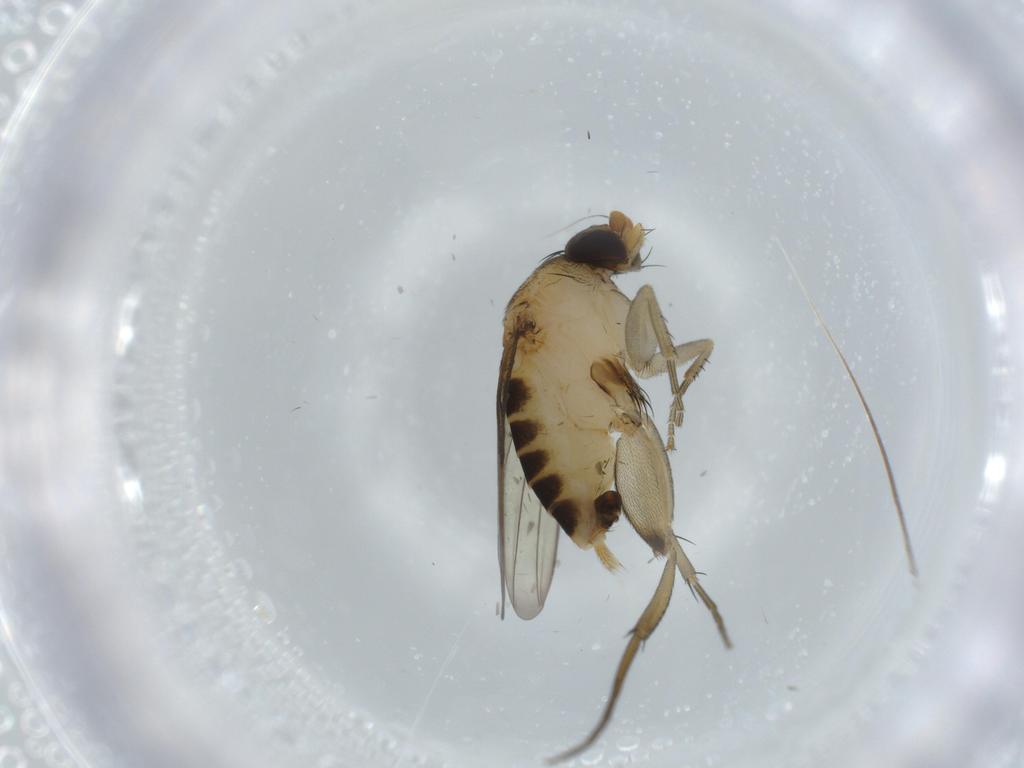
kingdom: Animalia
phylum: Arthropoda
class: Insecta
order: Diptera
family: Phoridae
